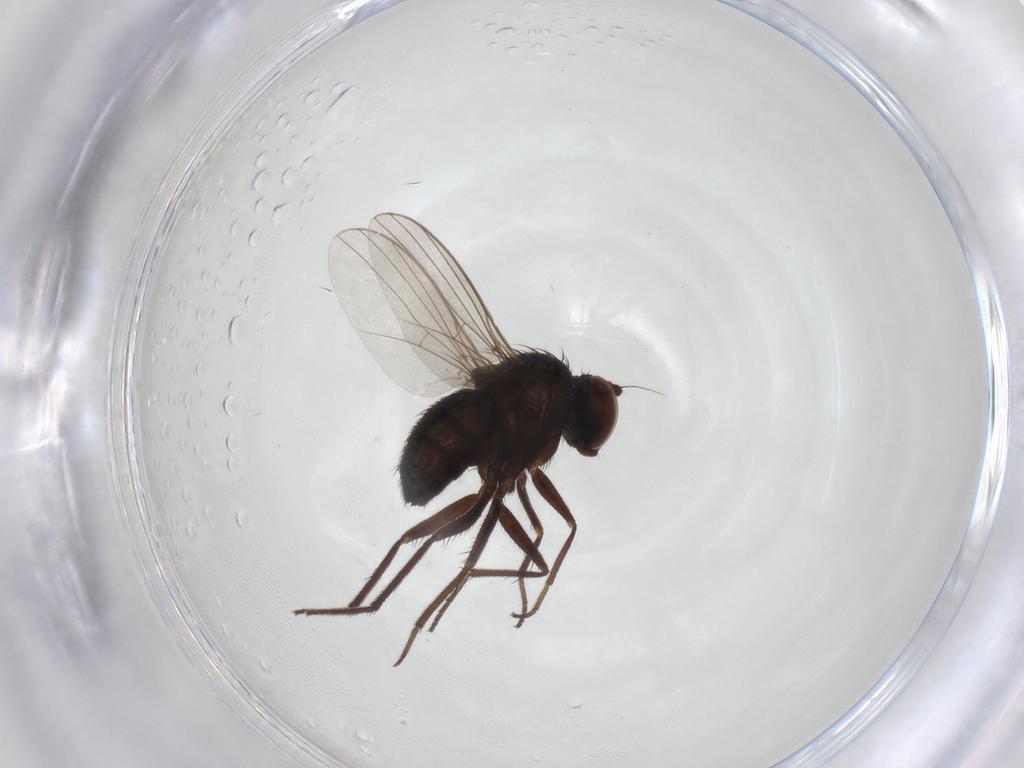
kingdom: Animalia
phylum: Arthropoda
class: Insecta
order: Diptera
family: Dolichopodidae
